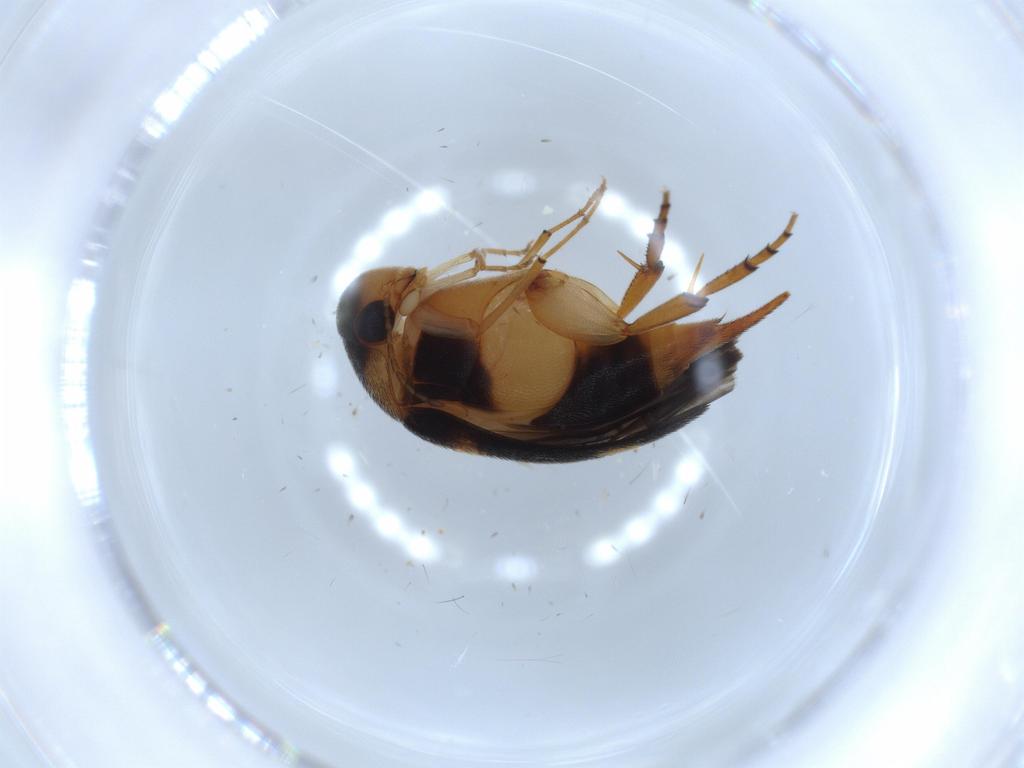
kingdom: Animalia
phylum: Arthropoda
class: Insecta
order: Coleoptera
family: Mordellidae
